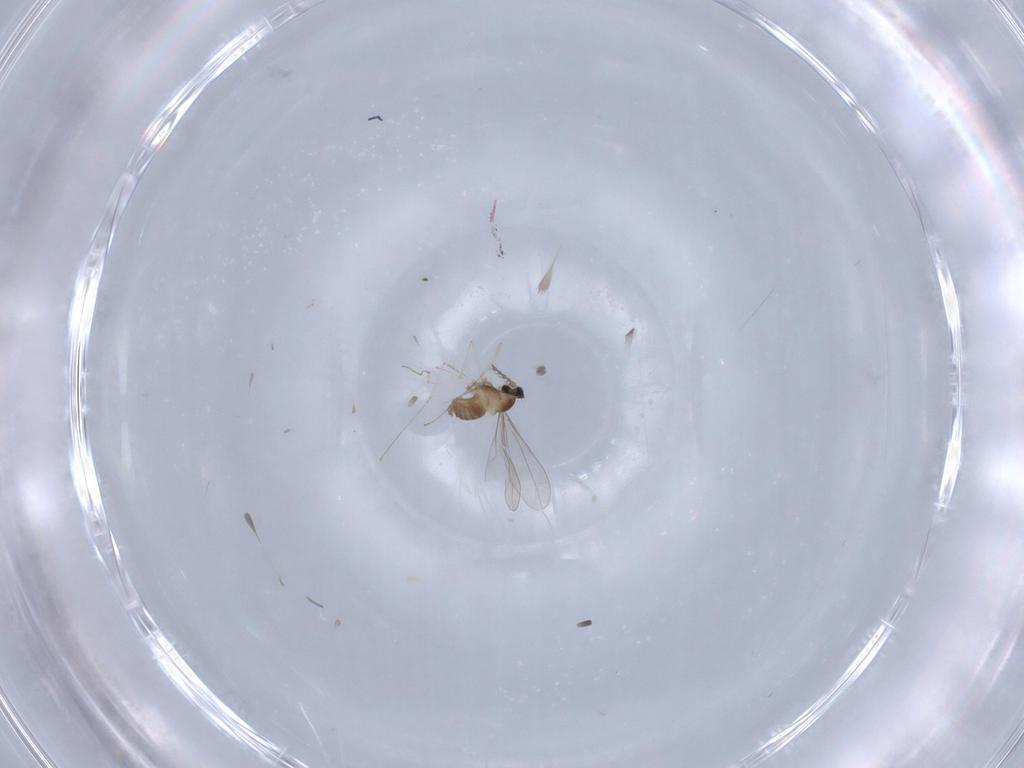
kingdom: Animalia
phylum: Arthropoda
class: Insecta
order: Diptera
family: Cecidomyiidae
